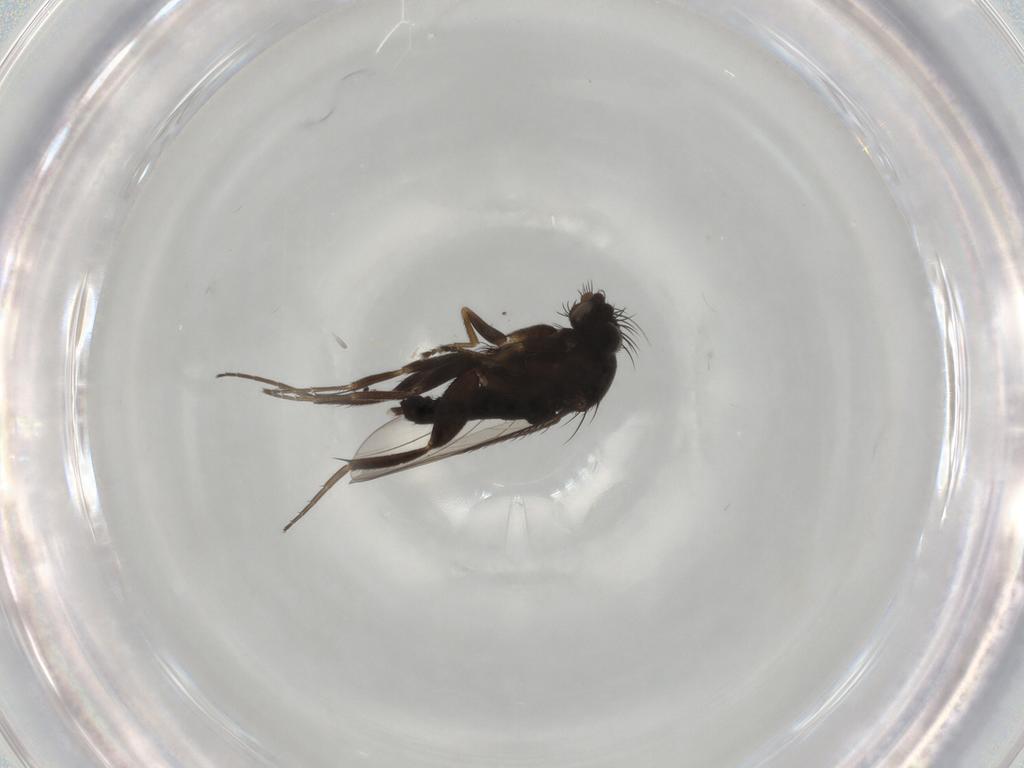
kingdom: Animalia
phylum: Arthropoda
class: Insecta
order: Diptera
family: Phoridae
